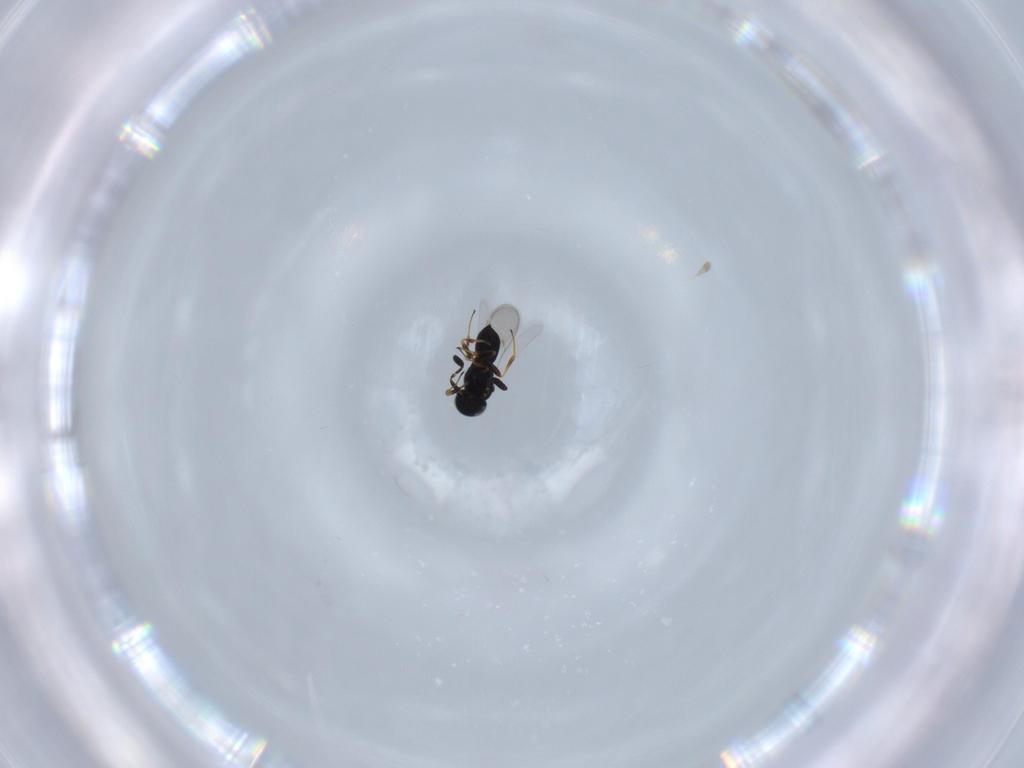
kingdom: Animalia
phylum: Arthropoda
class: Insecta
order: Hymenoptera
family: Scelionidae
